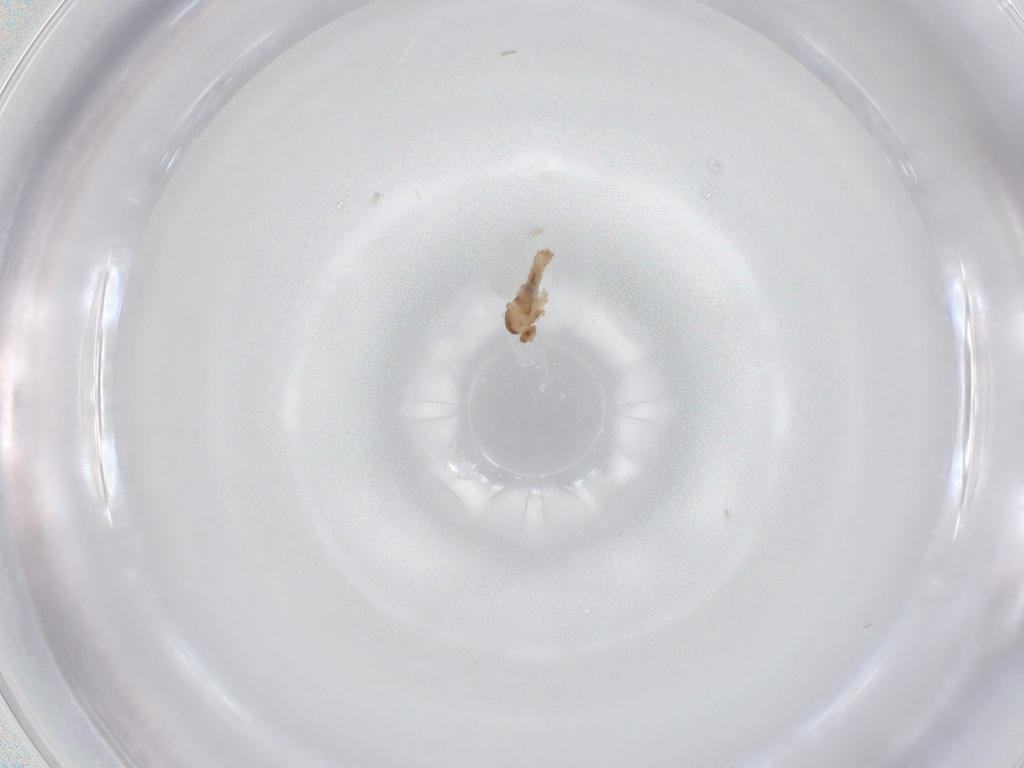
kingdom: Animalia
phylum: Arthropoda
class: Insecta
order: Diptera
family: Cecidomyiidae
